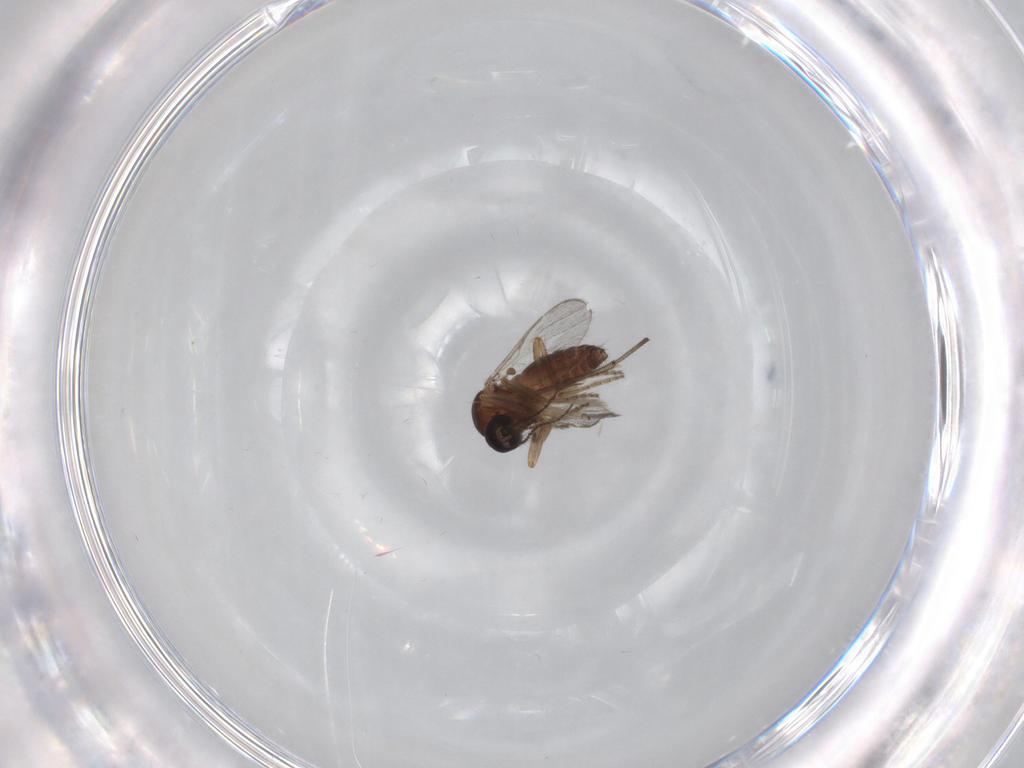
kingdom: Animalia
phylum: Arthropoda
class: Insecta
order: Diptera
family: Ceratopogonidae
